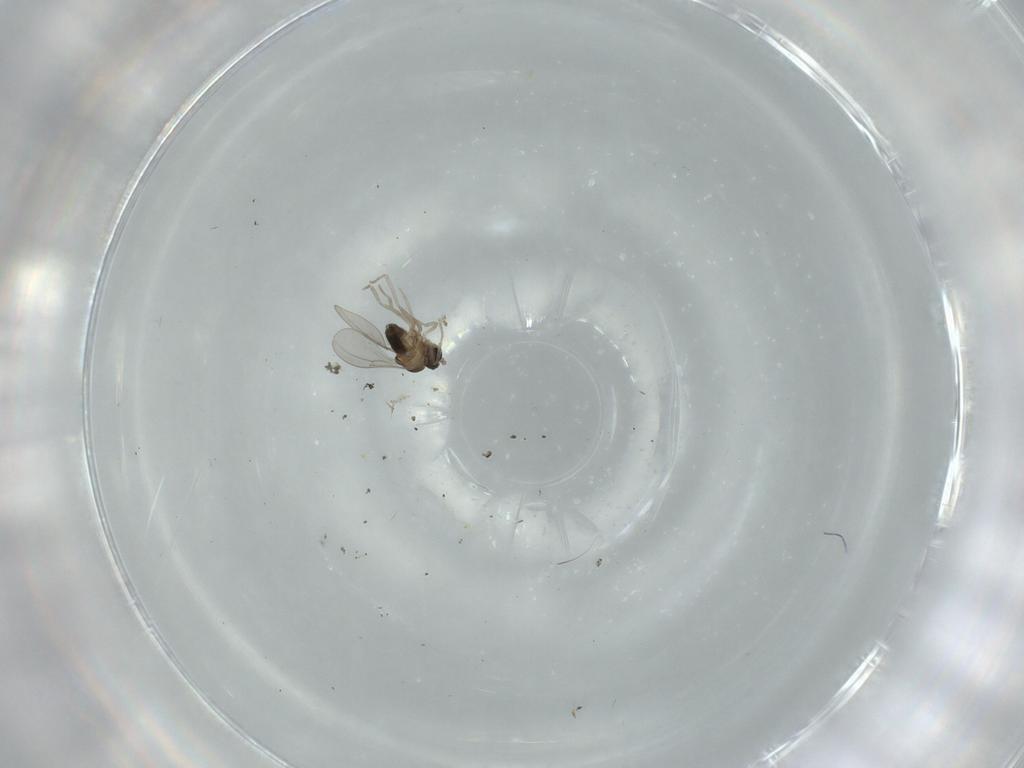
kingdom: Animalia
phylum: Arthropoda
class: Insecta
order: Diptera
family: Cecidomyiidae
